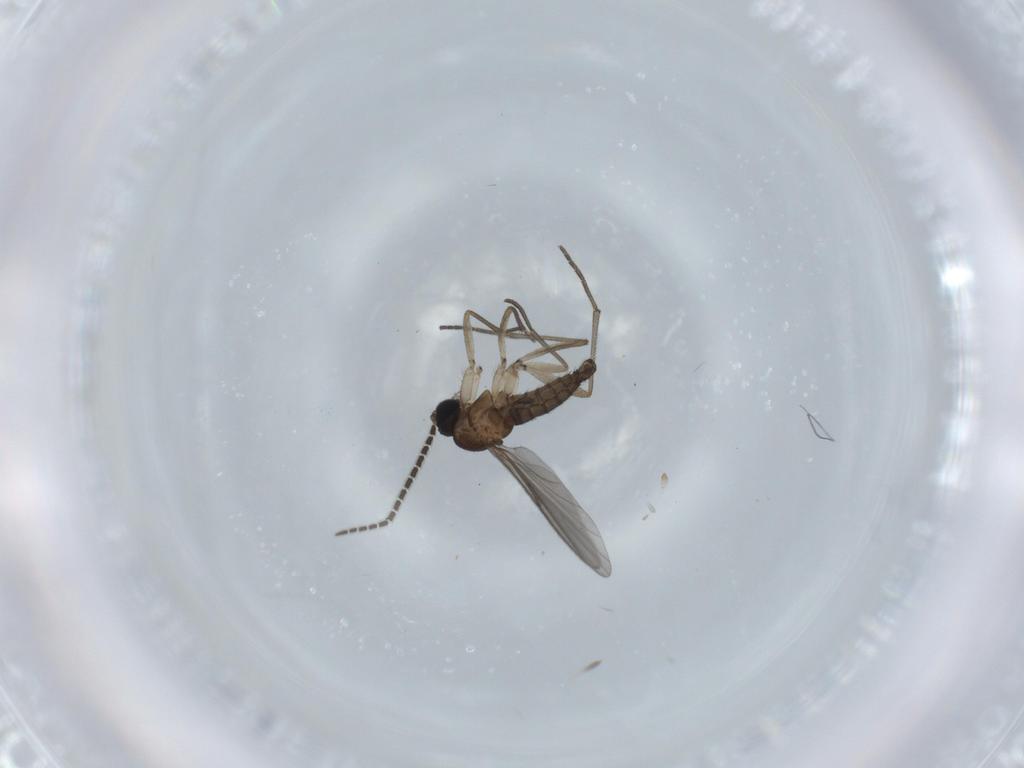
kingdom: Animalia
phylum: Arthropoda
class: Insecta
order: Diptera
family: Sciaridae
